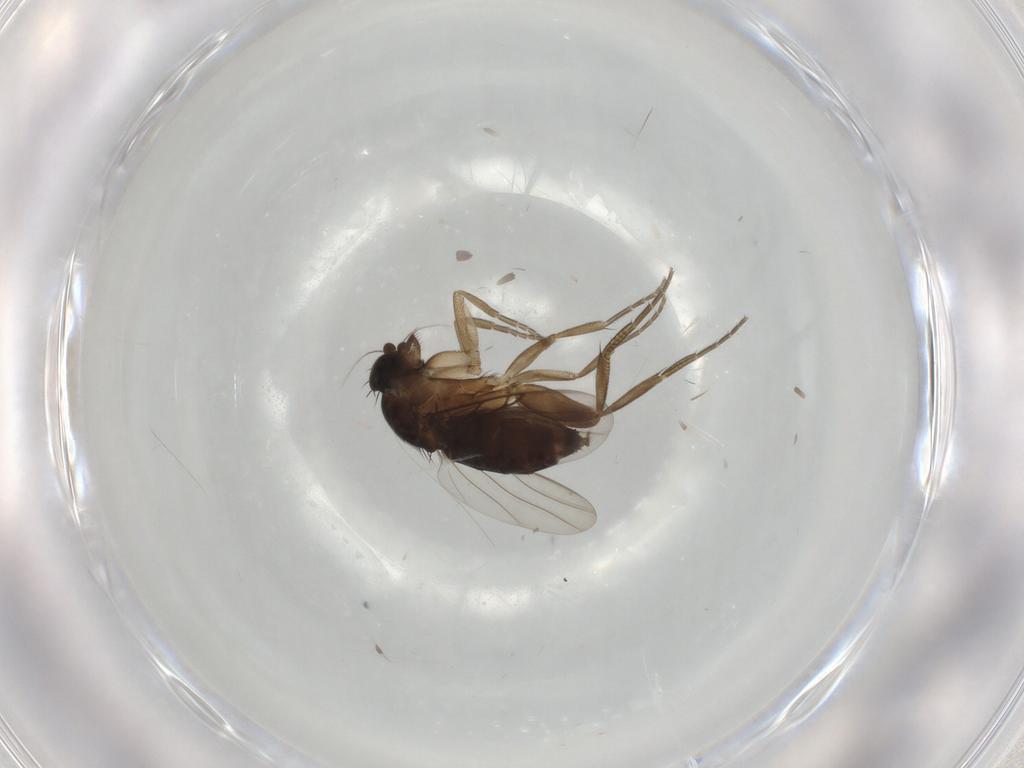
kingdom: Animalia
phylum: Arthropoda
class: Insecta
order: Diptera
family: Phoridae
